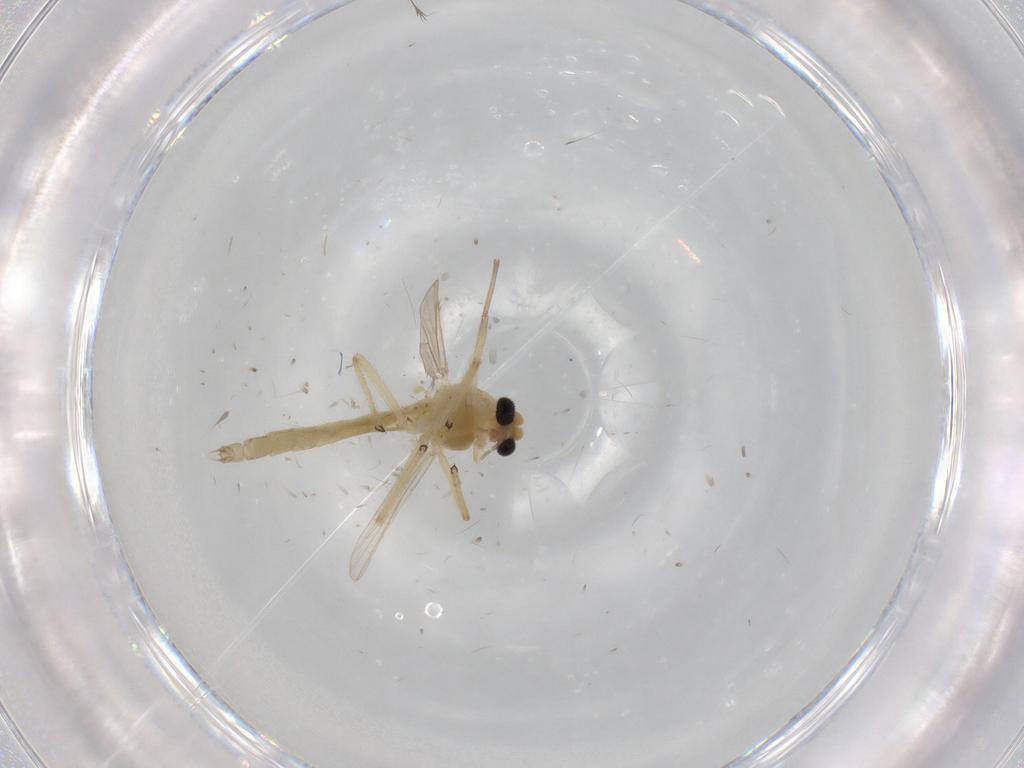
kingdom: Animalia
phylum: Arthropoda
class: Insecta
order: Diptera
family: Chironomidae
